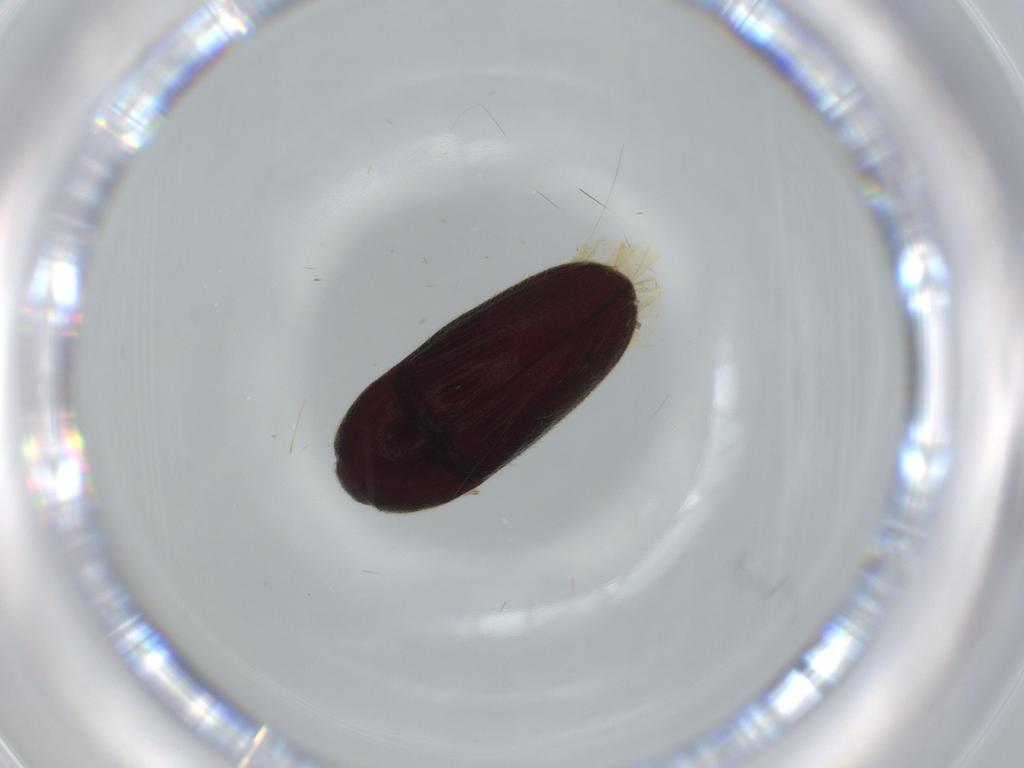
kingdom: Animalia
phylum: Arthropoda
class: Insecta
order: Coleoptera
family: Throscidae
